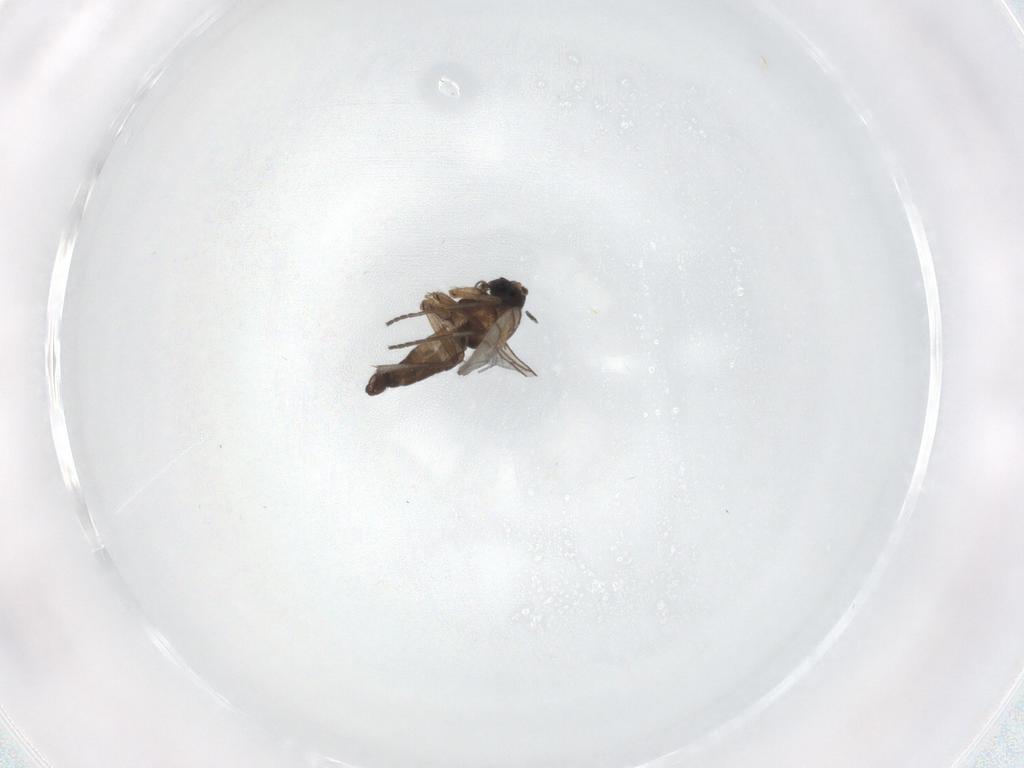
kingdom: Animalia
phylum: Arthropoda
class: Insecta
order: Diptera
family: Sciaridae
